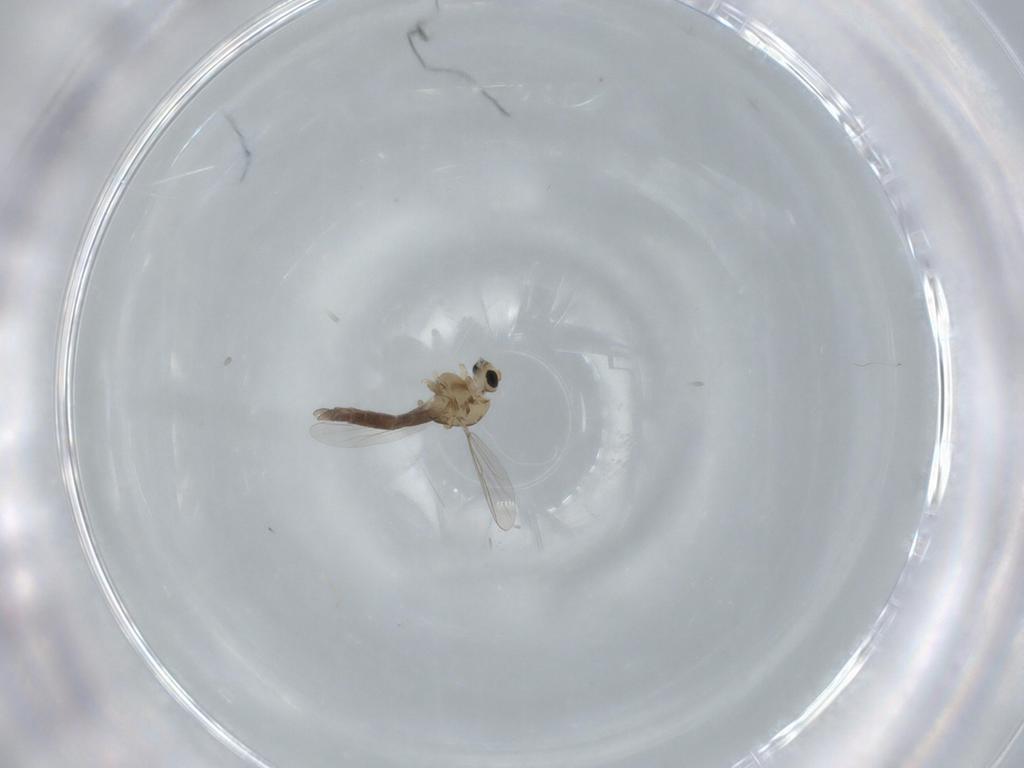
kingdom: Animalia
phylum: Arthropoda
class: Insecta
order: Diptera
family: Chironomidae
